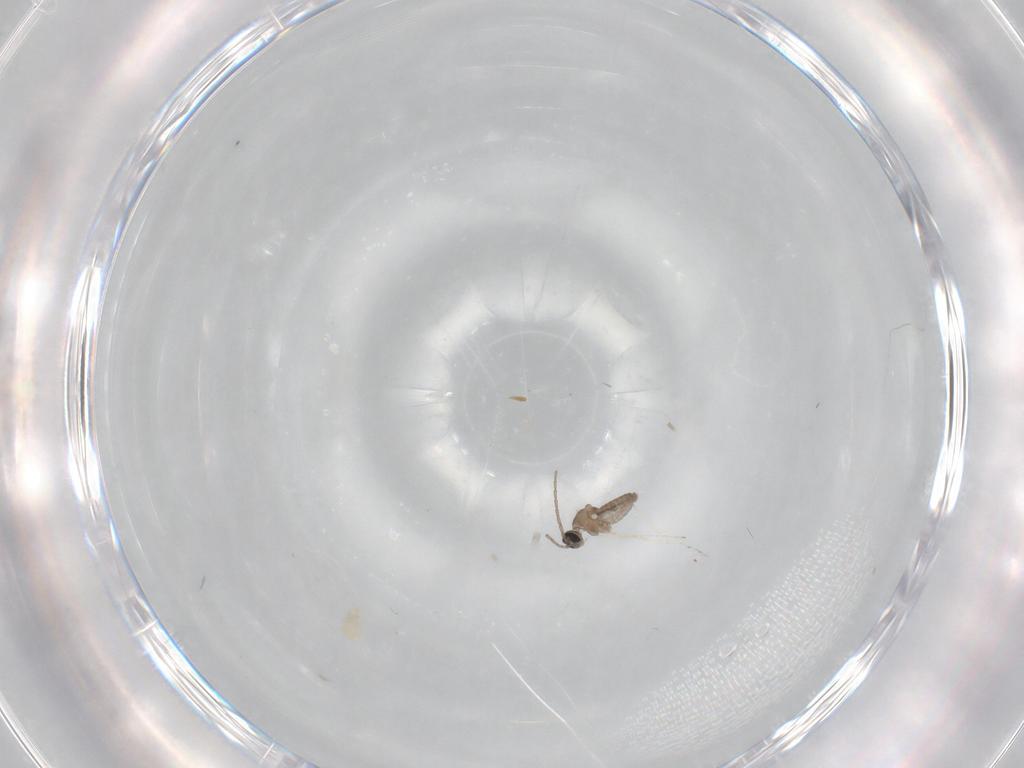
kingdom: Animalia
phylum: Arthropoda
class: Insecta
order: Diptera
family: Cecidomyiidae
